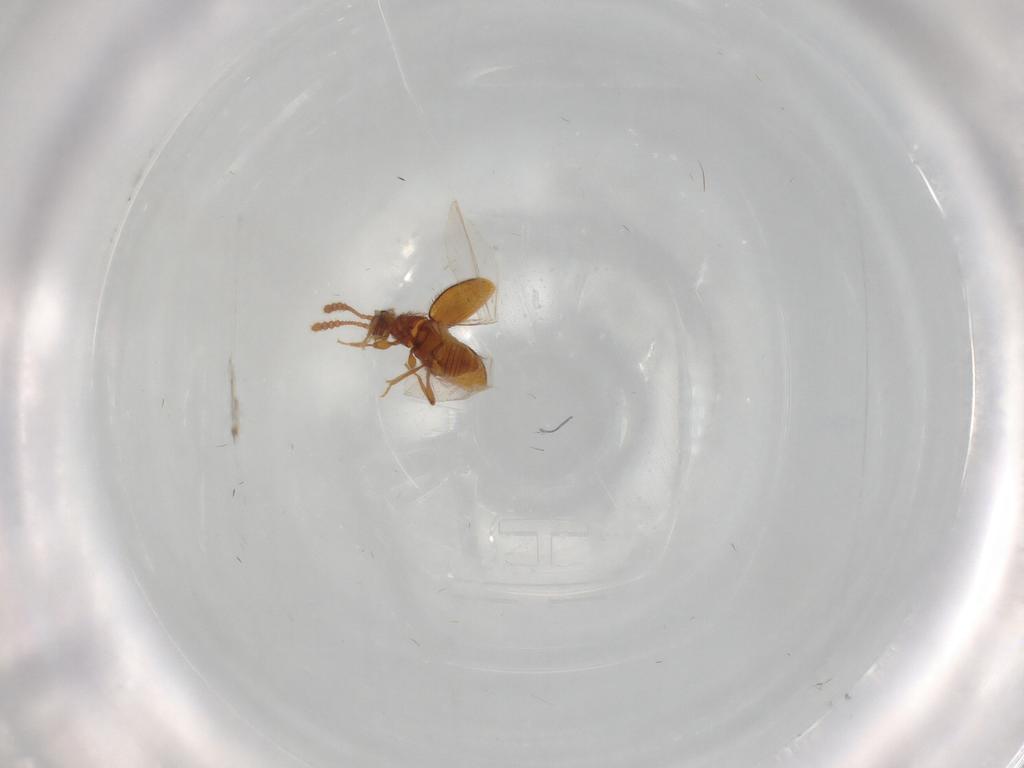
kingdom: Animalia
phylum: Arthropoda
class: Insecta
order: Coleoptera
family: Staphylinidae
